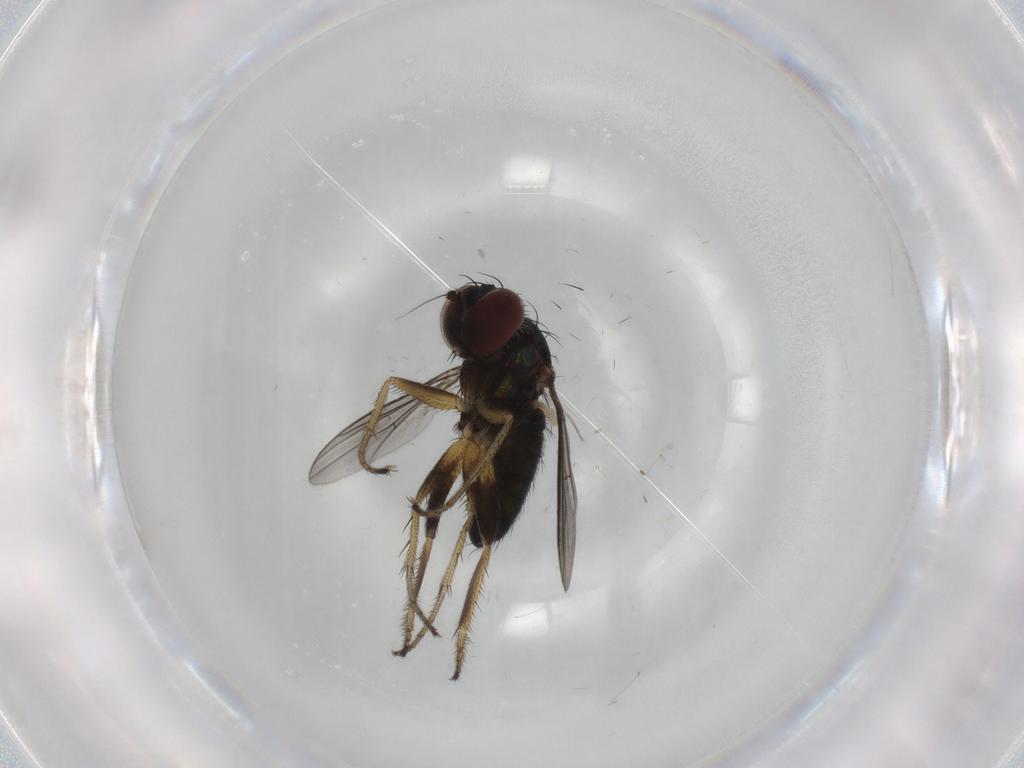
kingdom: Animalia
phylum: Arthropoda
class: Insecta
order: Diptera
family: Dolichopodidae
